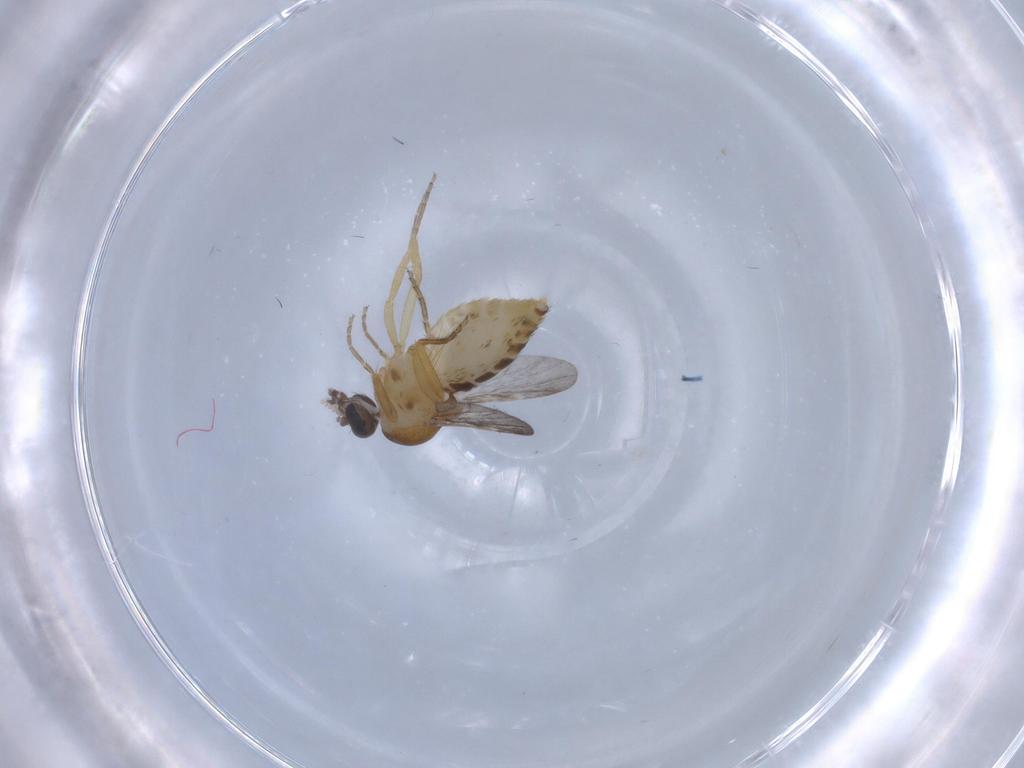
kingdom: Animalia
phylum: Arthropoda
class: Insecta
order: Diptera
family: Ceratopogonidae
